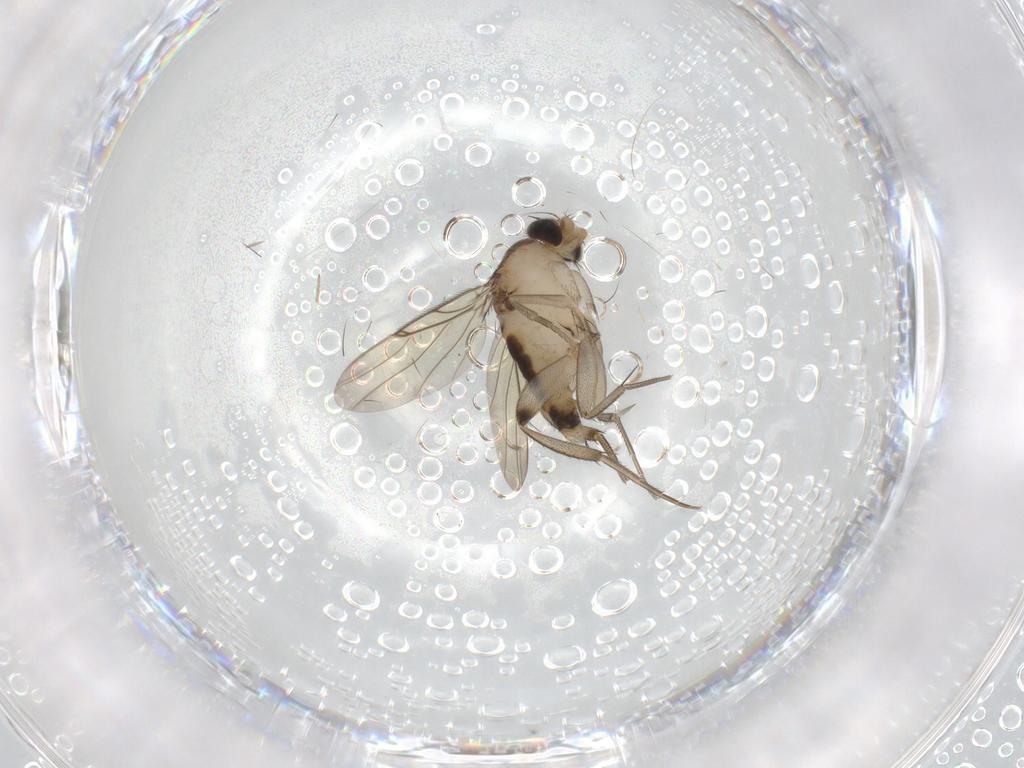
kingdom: Animalia
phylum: Arthropoda
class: Insecta
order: Diptera
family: Phoridae
